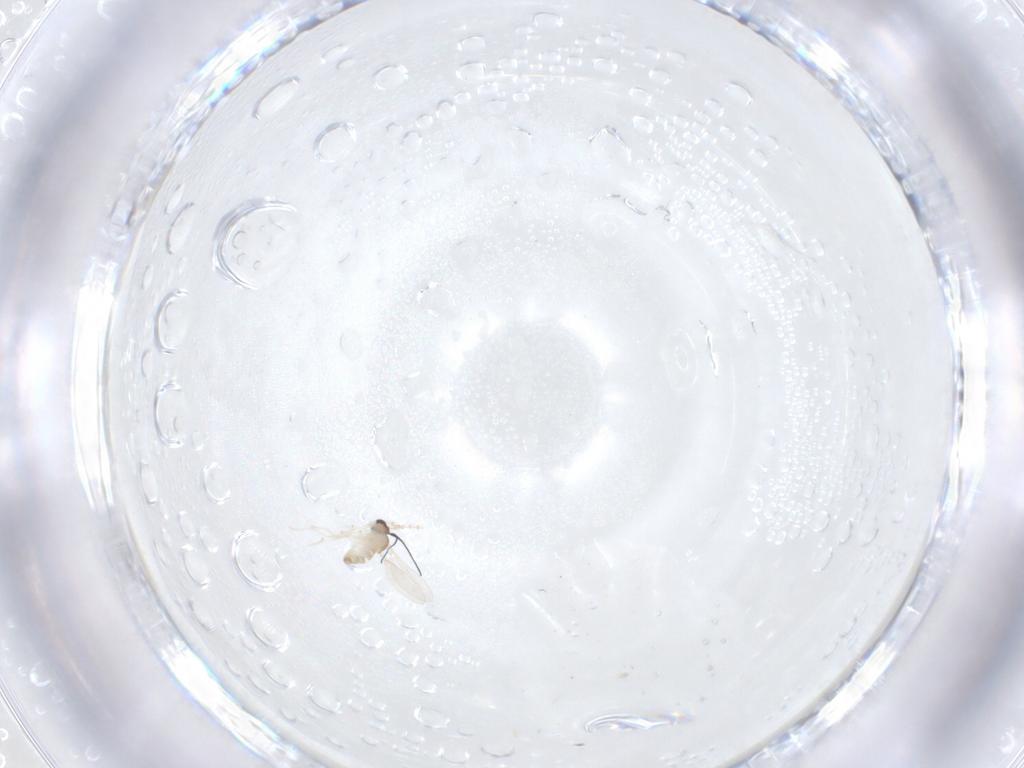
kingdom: Animalia
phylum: Arthropoda
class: Insecta
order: Diptera
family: Cecidomyiidae
